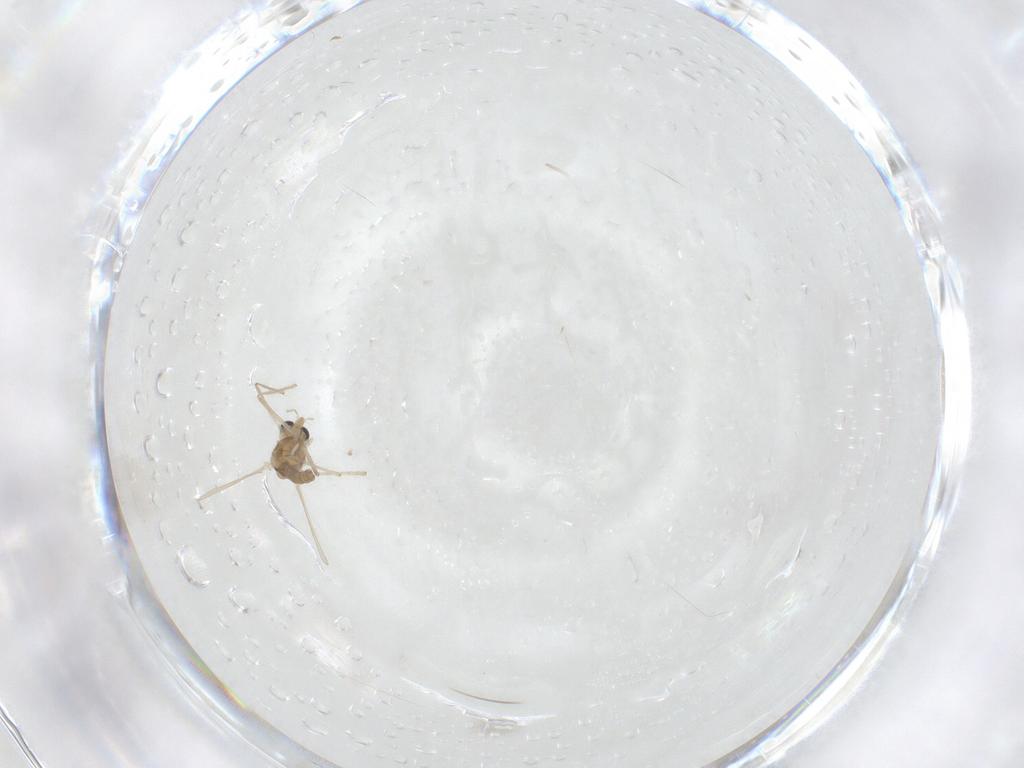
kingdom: Animalia
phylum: Arthropoda
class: Insecta
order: Diptera
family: Chironomidae
